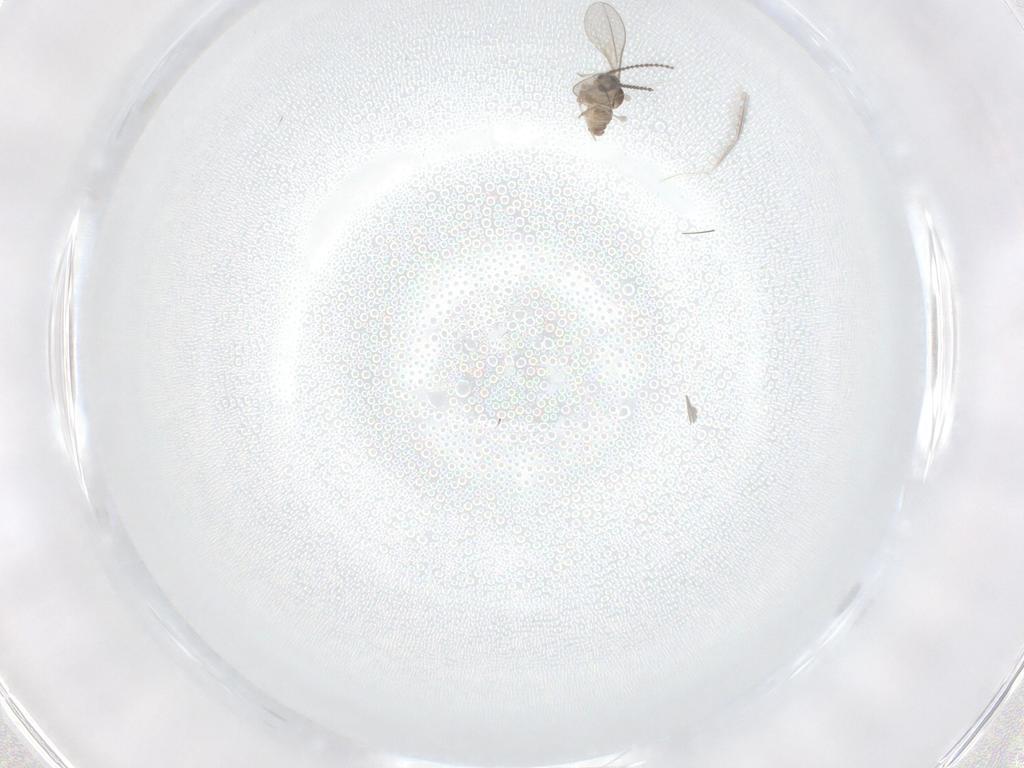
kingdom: Animalia
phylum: Arthropoda
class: Insecta
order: Diptera
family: Cecidomyiidae
